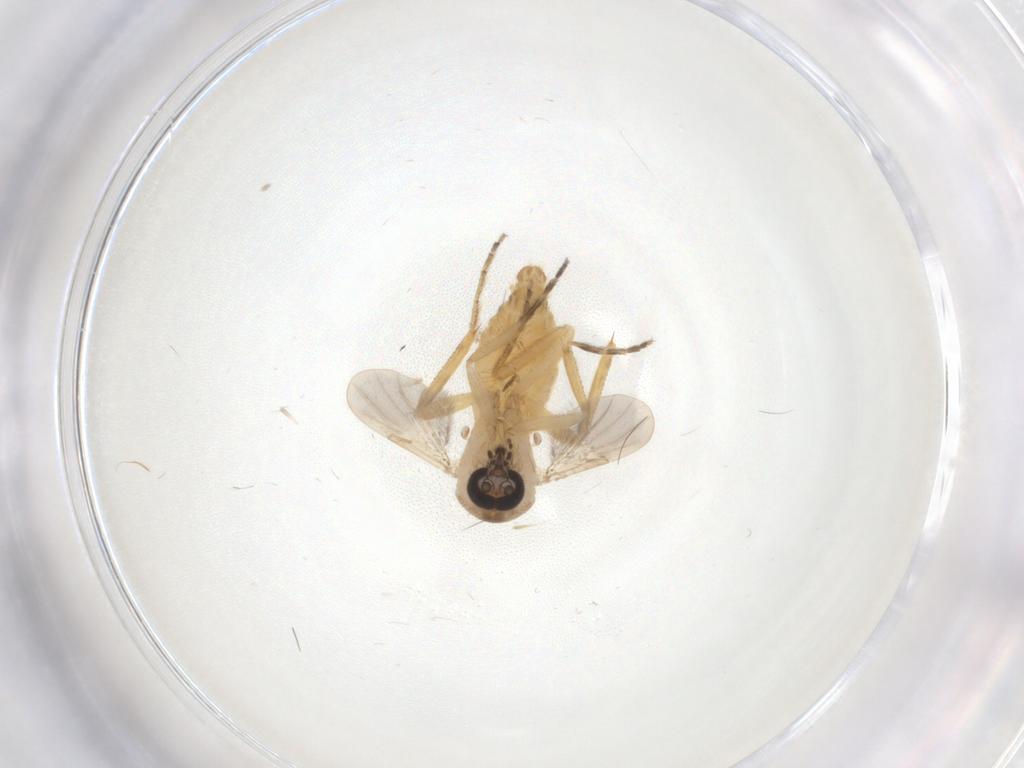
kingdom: Animalia
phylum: Arthropoda
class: Insecta
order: Diptera
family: Ceratopogonidae
